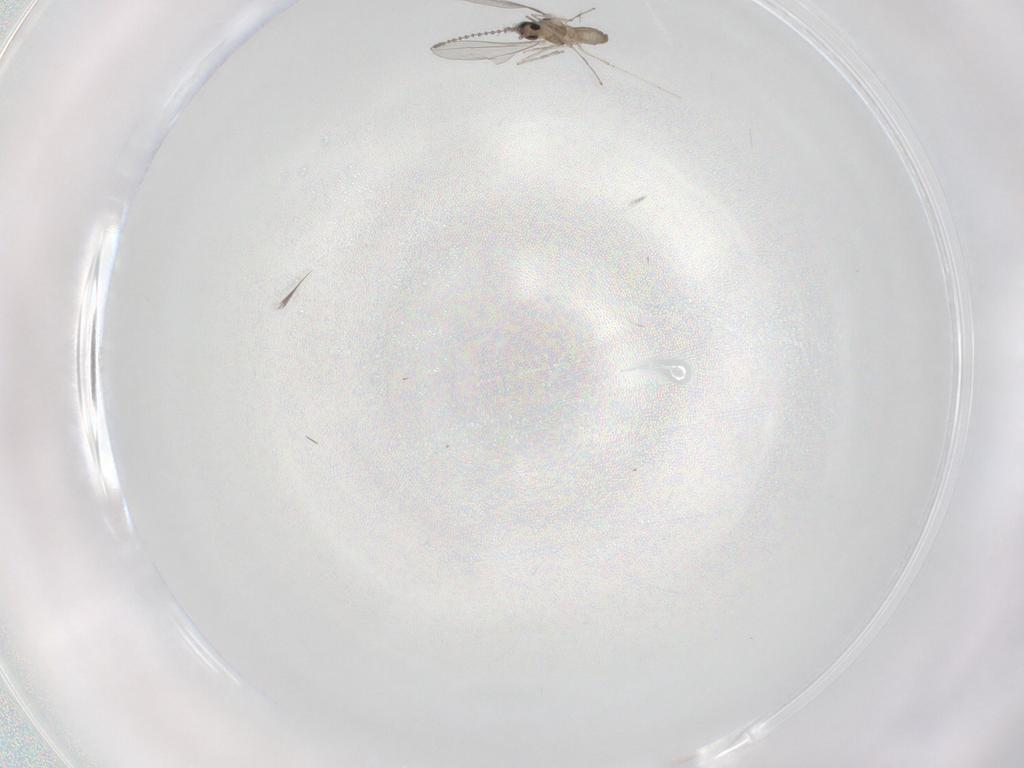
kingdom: Animalia
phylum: Arthropoda
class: Insecta
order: Diptera
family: Cecidomyiidae
